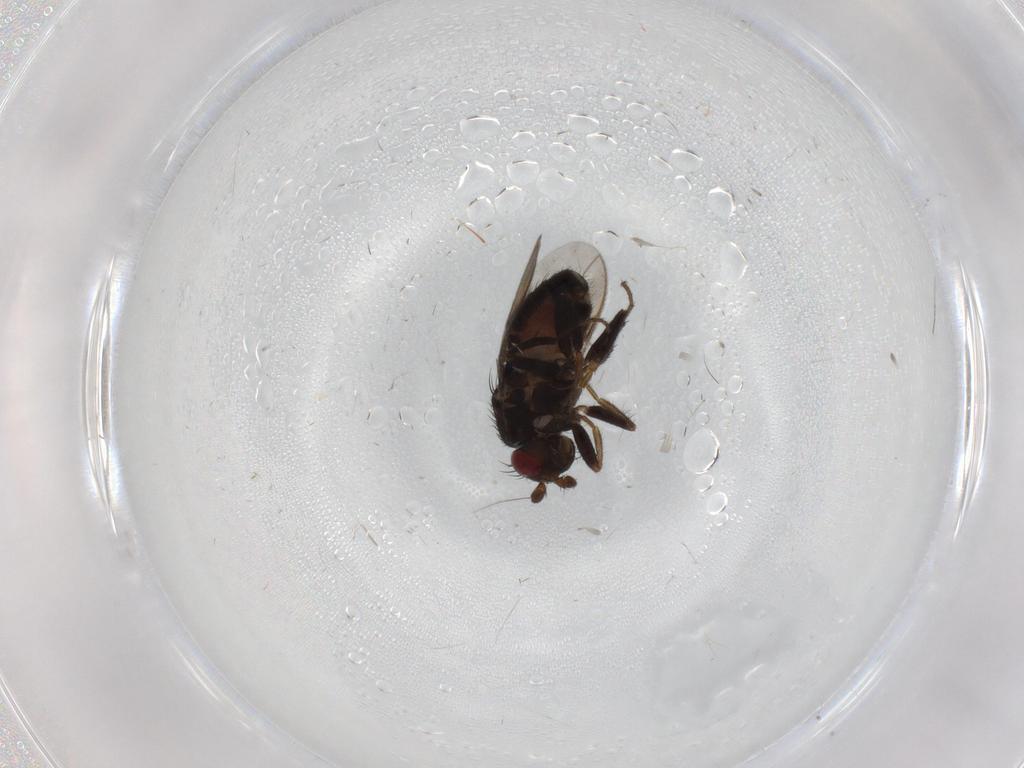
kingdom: Animalia
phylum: Arthropoda
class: Insecta
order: Diptera
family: Sphaeroceridae
